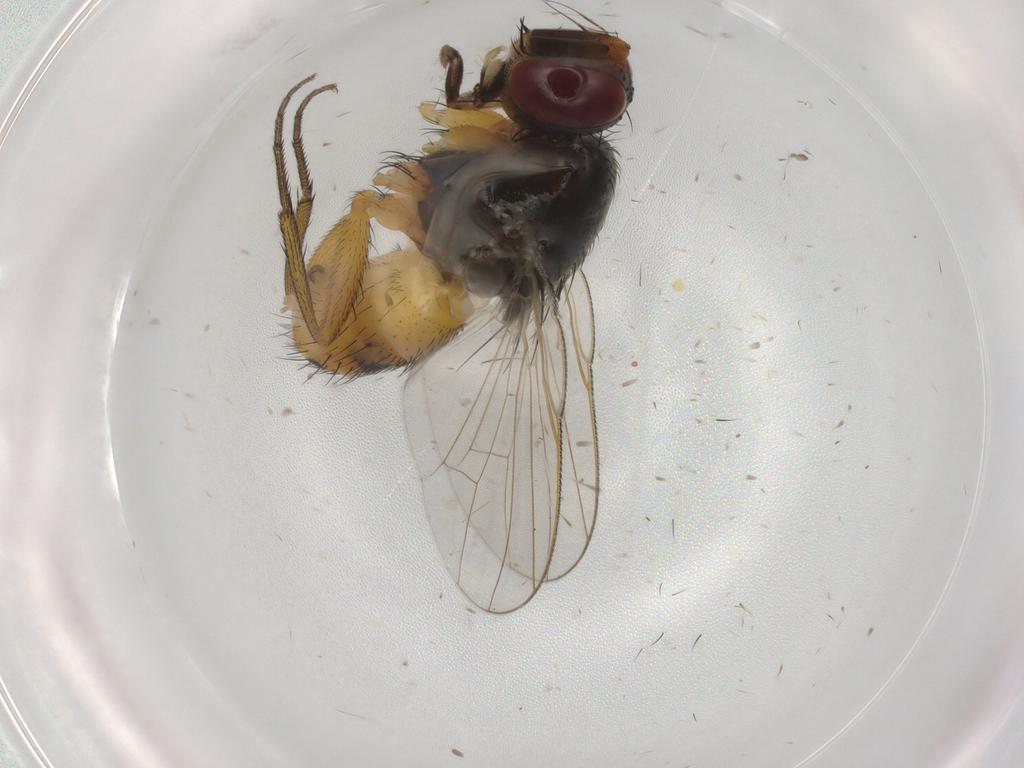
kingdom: Animalia
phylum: Arthropoda
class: Insecta
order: Diptera
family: Muscidae
